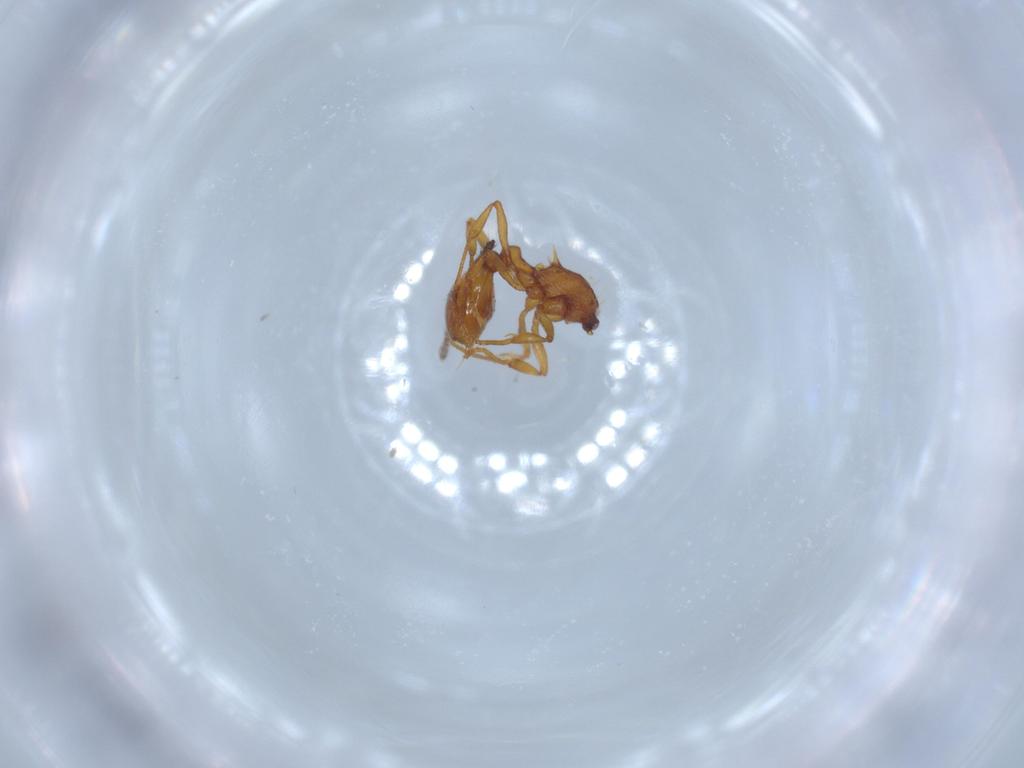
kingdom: Animalia
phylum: Arthropoda
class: Insecta
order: Hymenoptera
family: Formicidae
